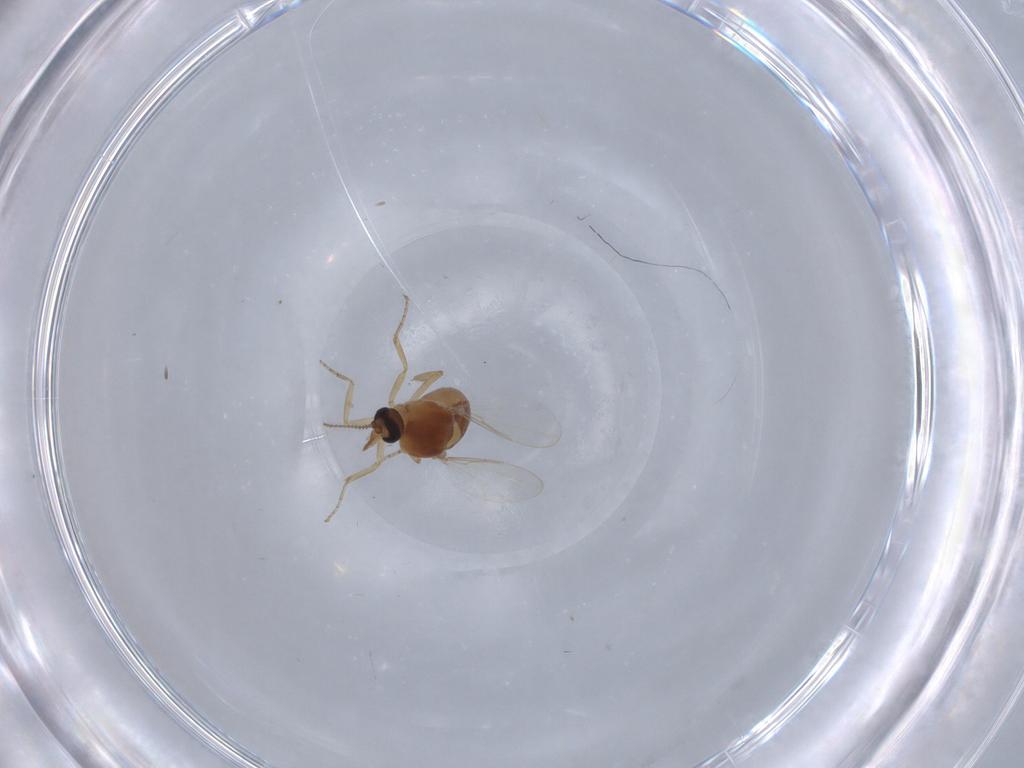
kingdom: Animalia
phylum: Arthropoda
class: Insecta
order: Diptera
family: Ceratopogonidae
